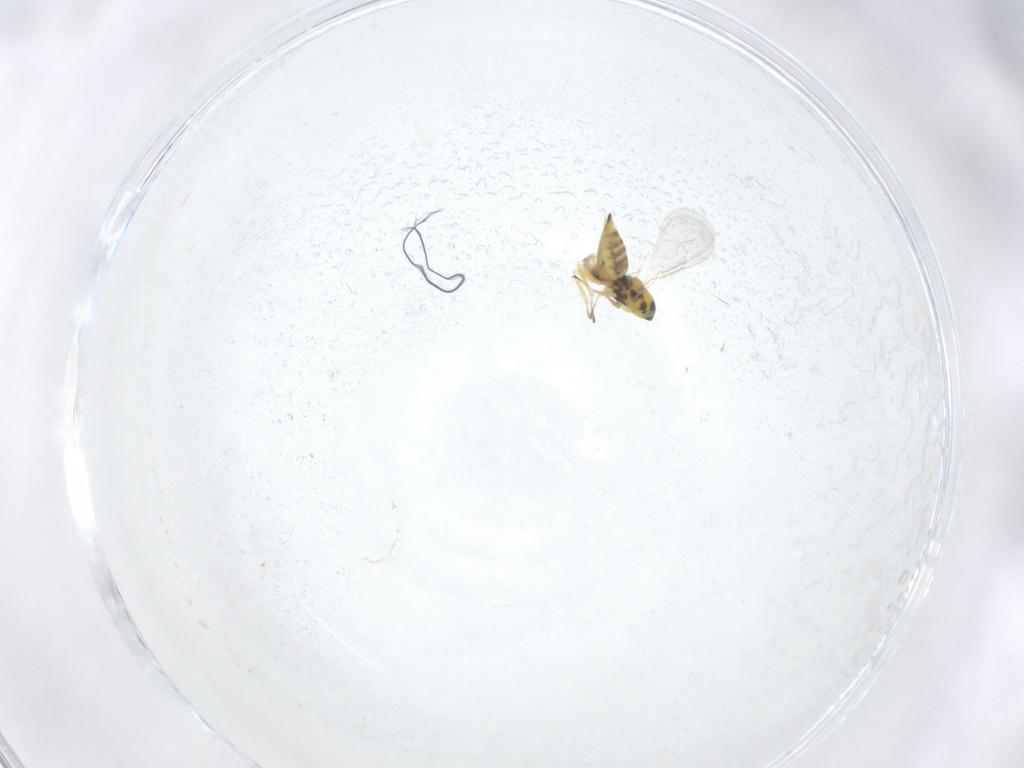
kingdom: Animalia
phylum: Arthropoda
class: Insecta
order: Hymenoptera
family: Eulophidae
